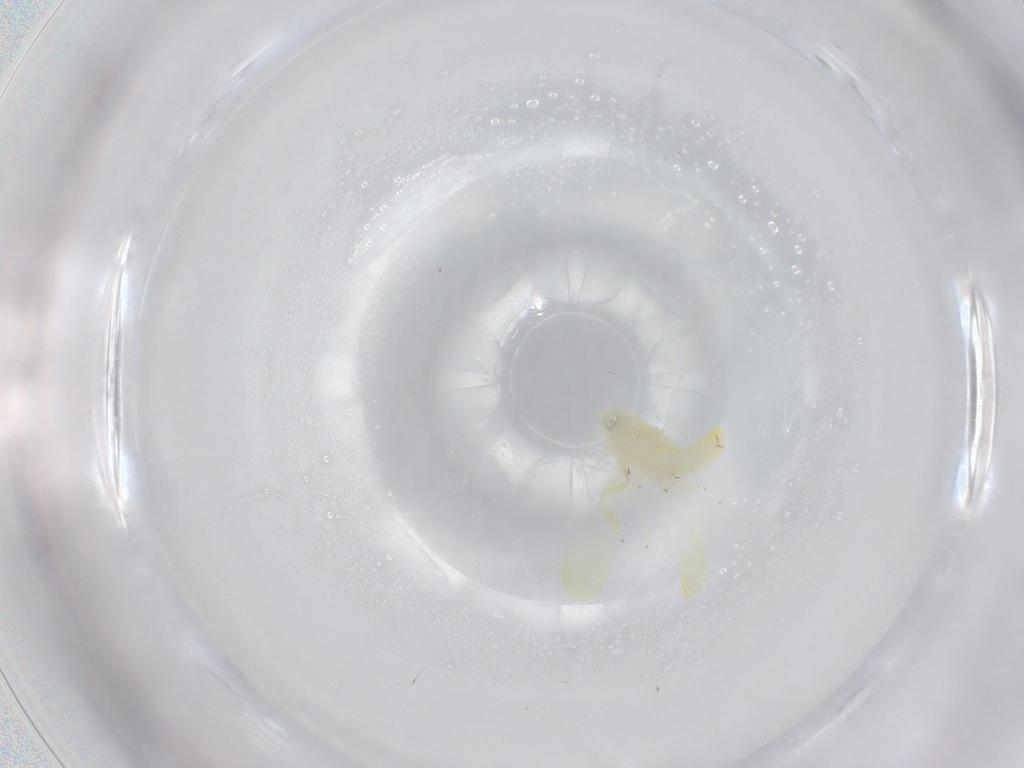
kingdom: Animalia
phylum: Arthropoda
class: Insecta
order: Hemiptera
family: Cicadellidae
